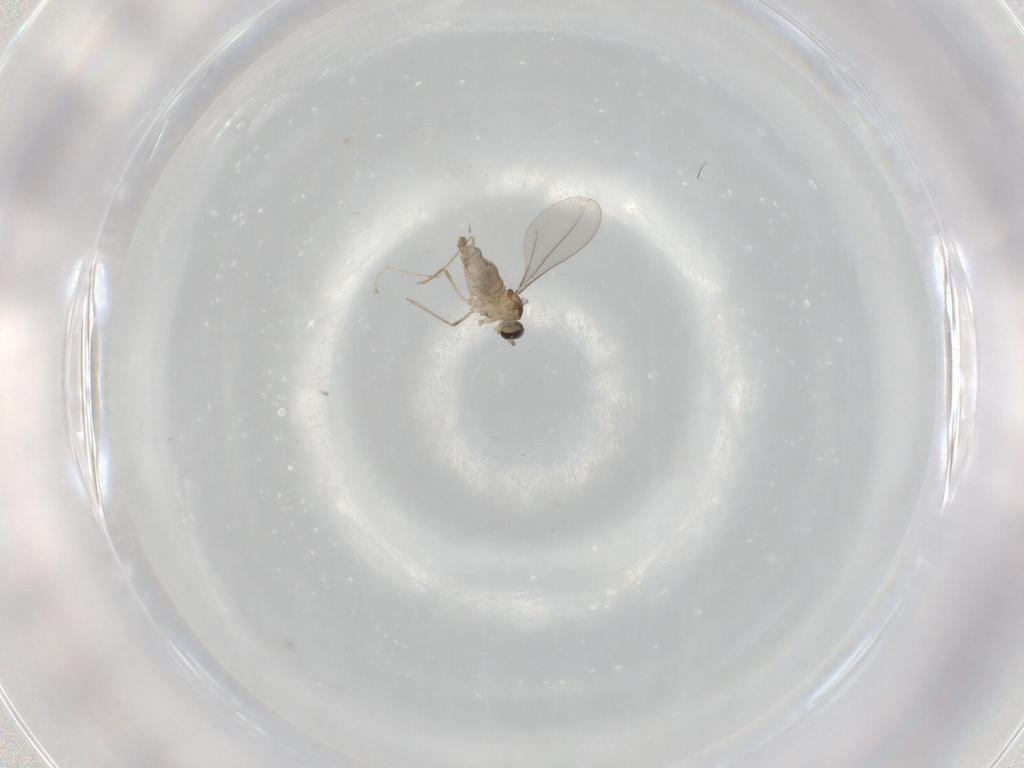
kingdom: Animalia
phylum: Arthropoda
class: Insecta
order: Diptera
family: Cecidomyiidae
